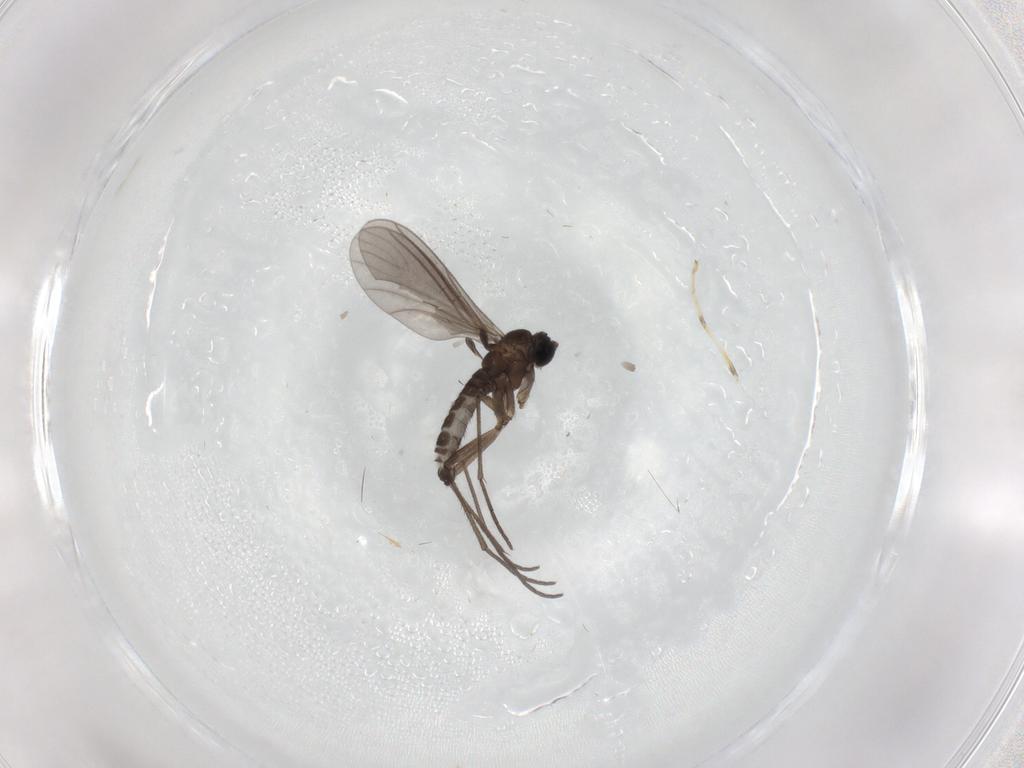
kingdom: Animalia
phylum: Arthropoda
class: Insecta
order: Diptera
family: Sciaridae
